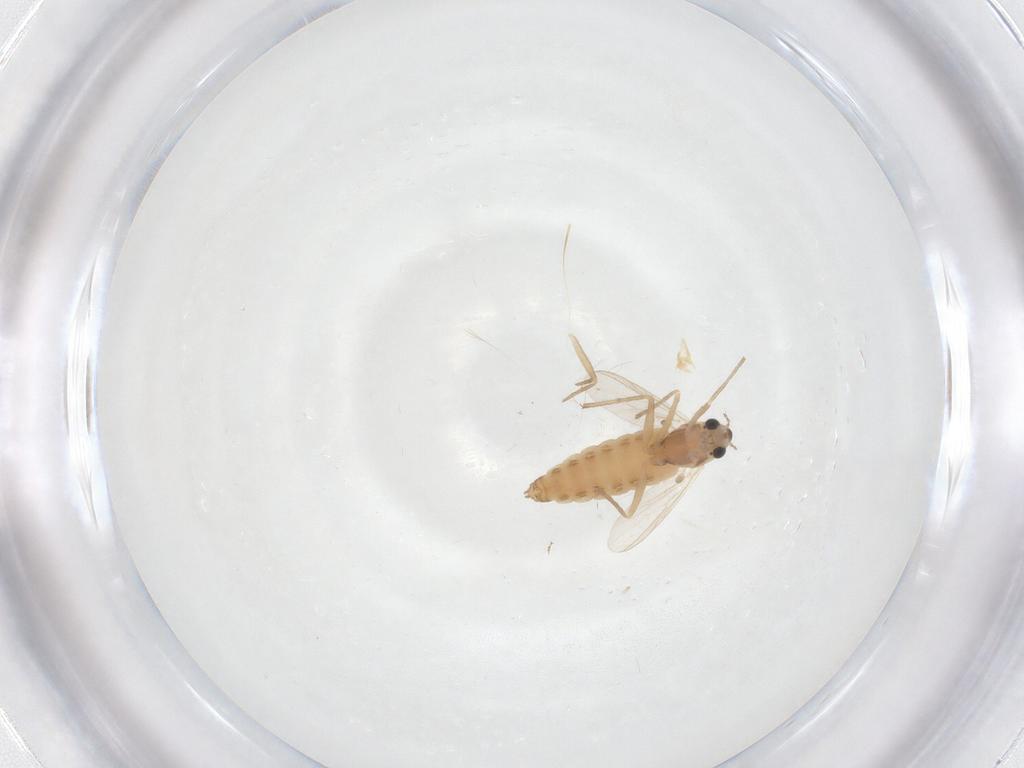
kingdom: Animalia
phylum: Arthropoda
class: Insecta
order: Diptera
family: Chironomidae
